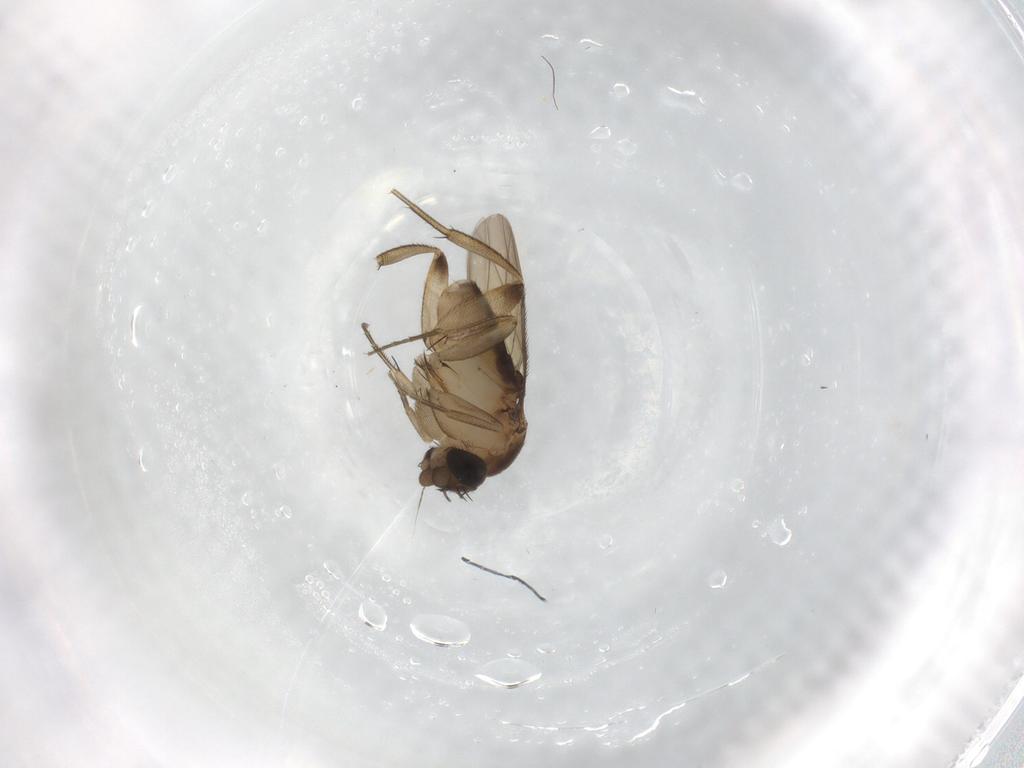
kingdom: Animalia
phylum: Arthropoda
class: Insecta
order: Diptera
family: Phoridae
